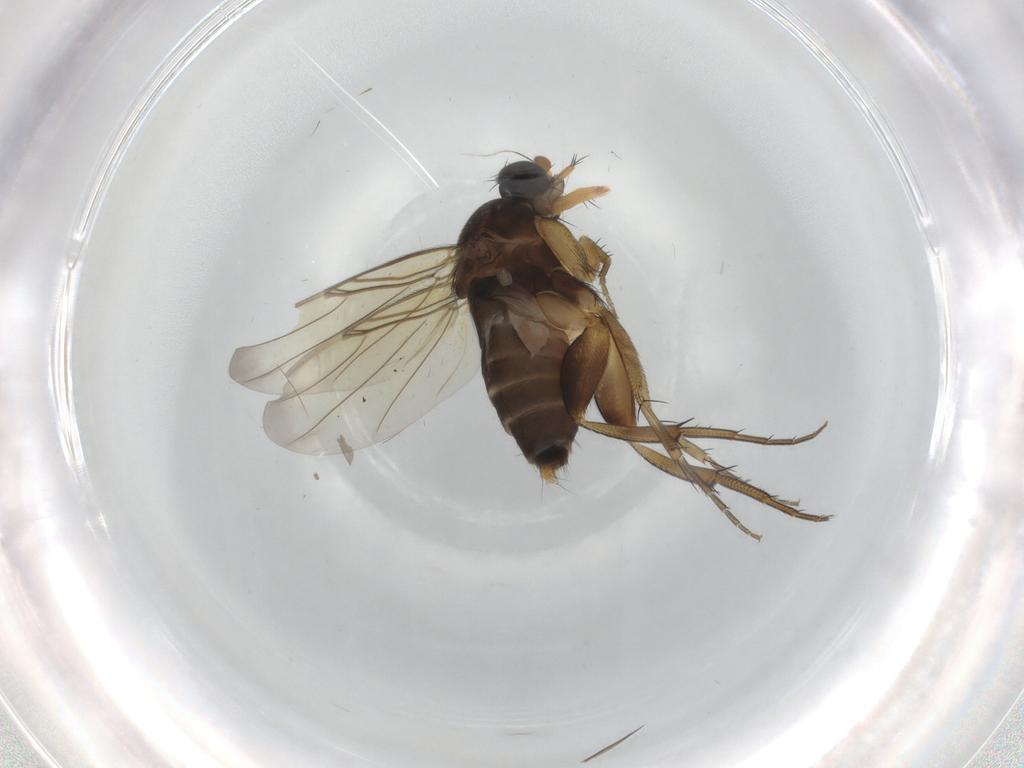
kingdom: Animalia
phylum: Arthropoda
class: Insecta
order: Diptera
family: Phoridae
